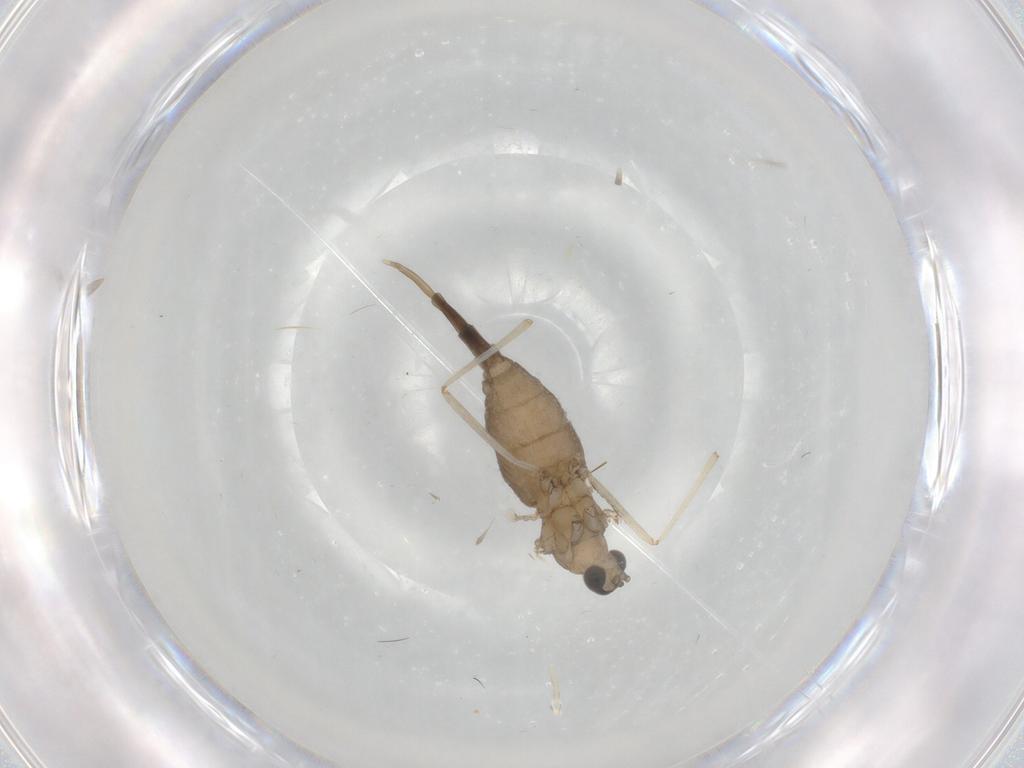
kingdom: Animalia
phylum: Arthropoda
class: Insecta
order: Diptera
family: Cecidomyiidae
